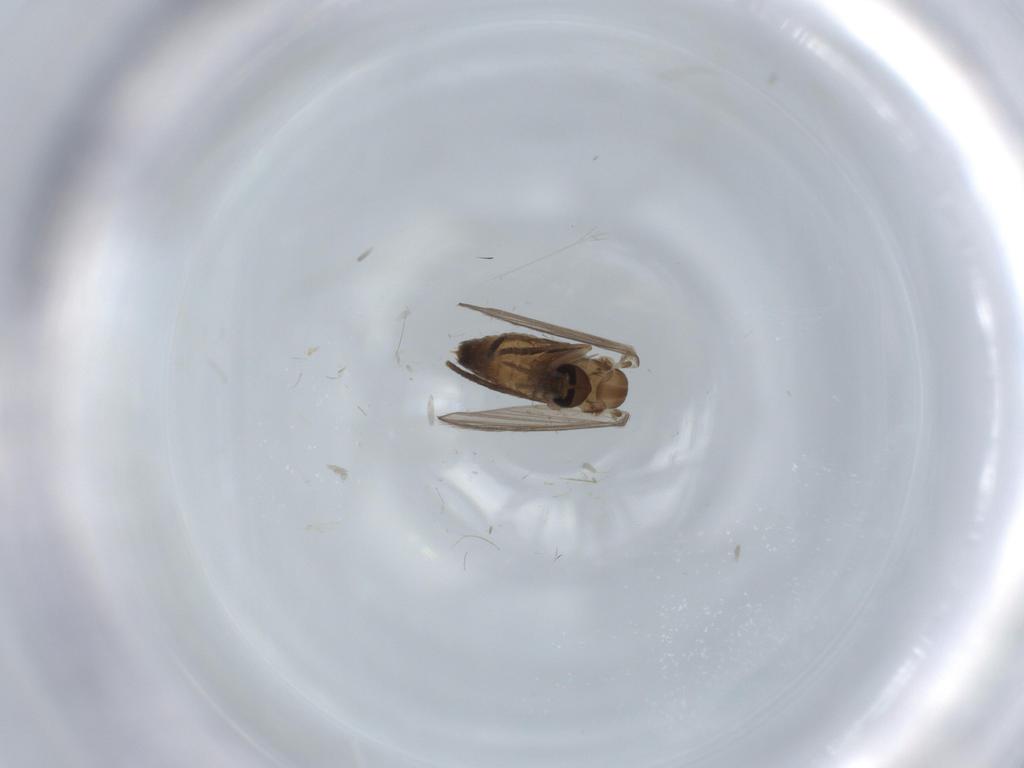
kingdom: Animalia
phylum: Arthropoda
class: Insecta
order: Diptera
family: Psychodidae
